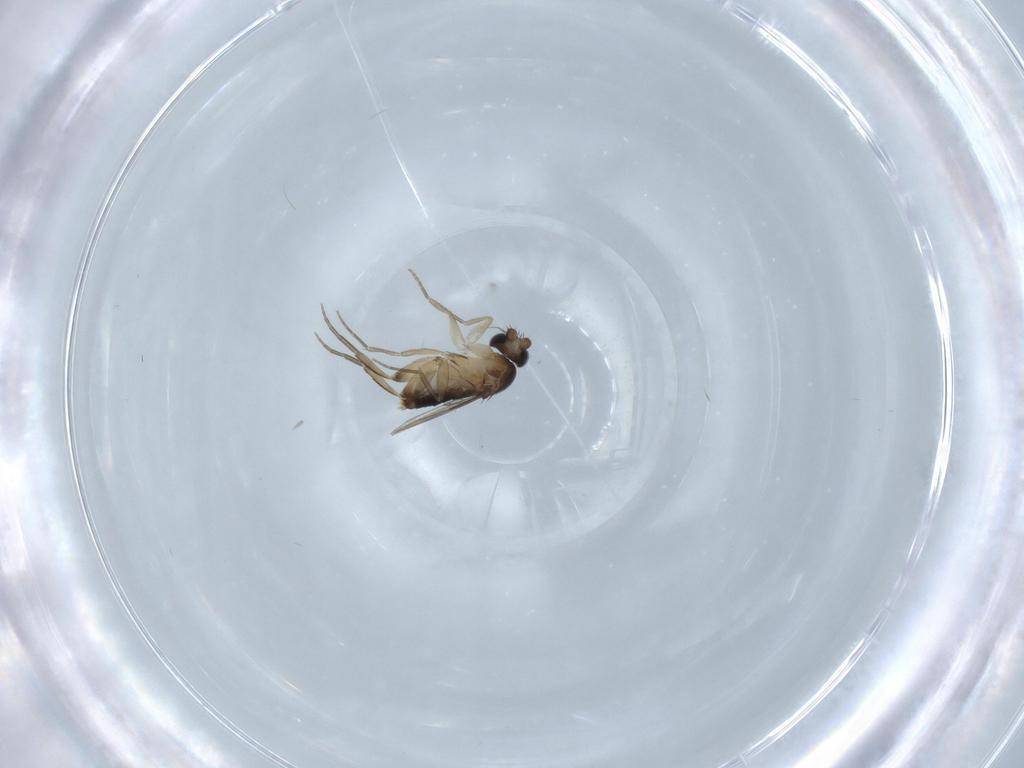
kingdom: Animalia
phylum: Arthropoda
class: Insecta
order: Diptera
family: Cecidomyiidae
